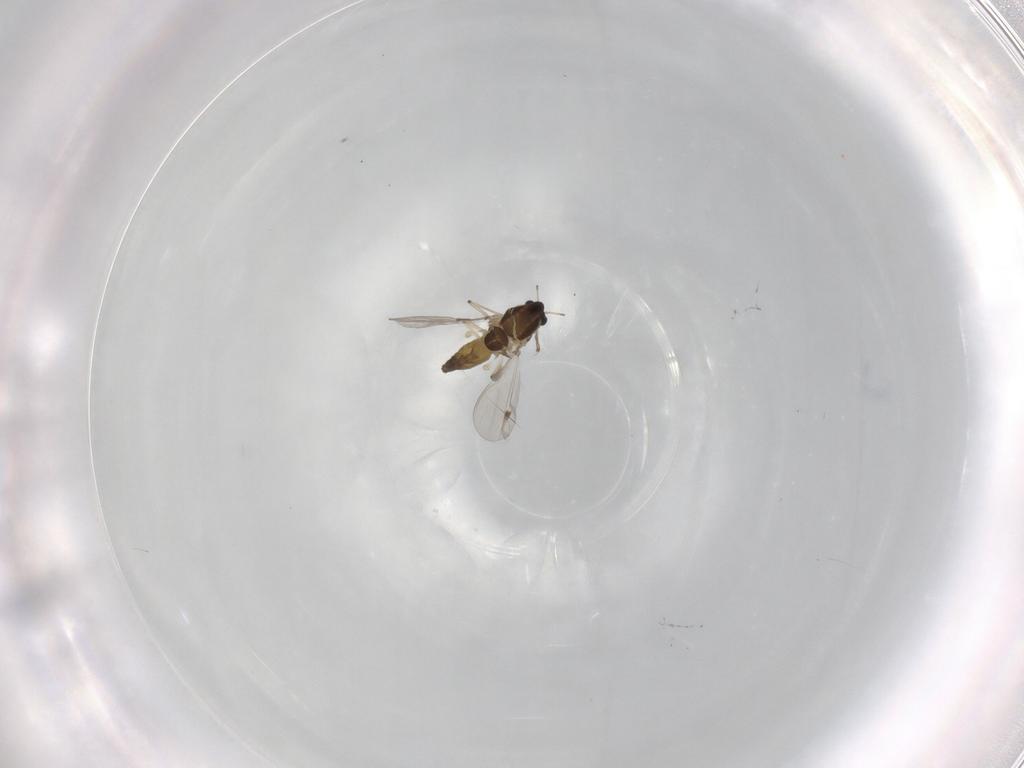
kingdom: Animalia
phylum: Arthropoda
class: Insecta
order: Diptera
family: Chironomidae
